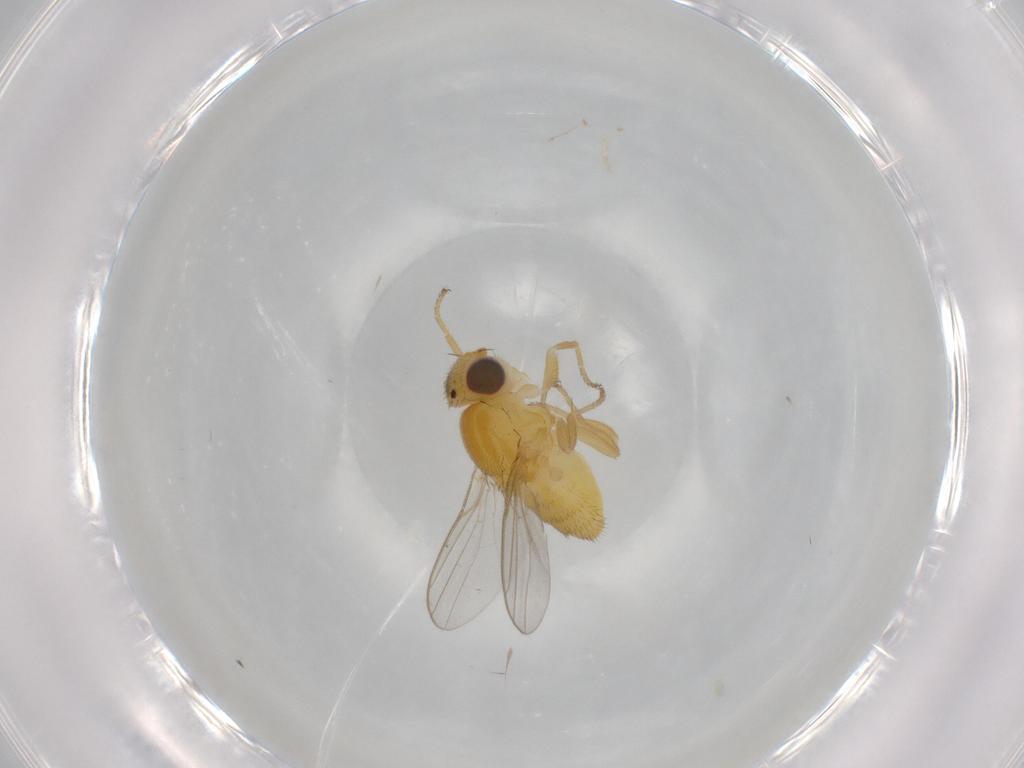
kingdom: Animalia
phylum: Arthropoda
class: Insecta
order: Diptera
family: Chloropidae
